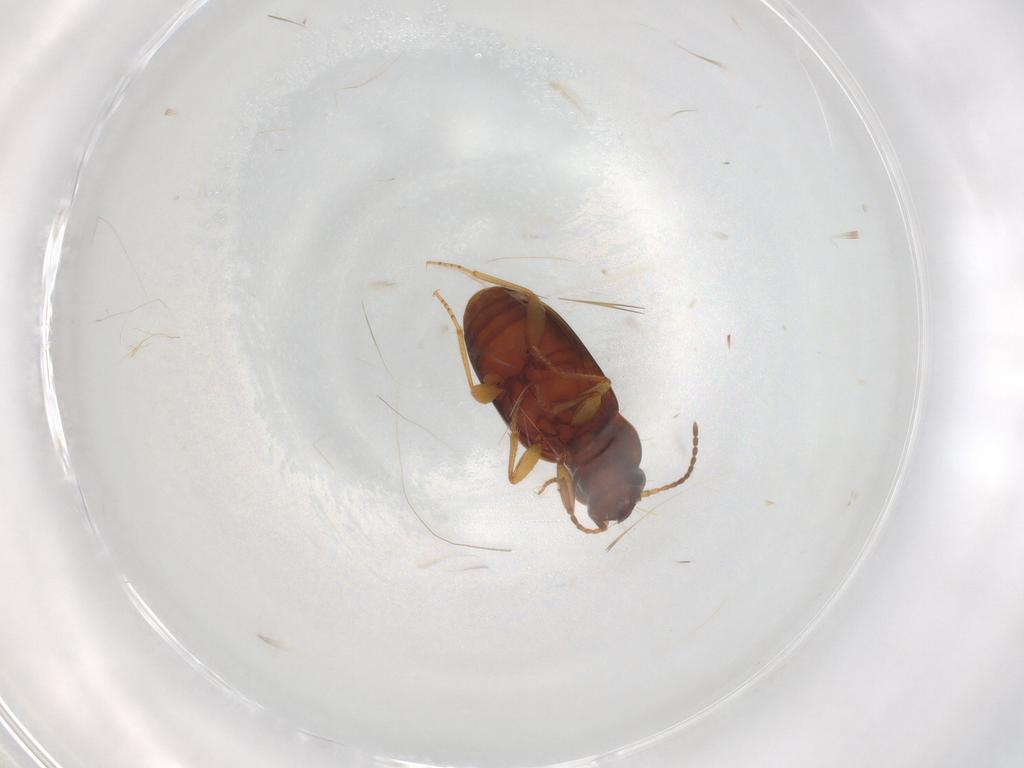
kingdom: Animalia
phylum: Arthropoda
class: Insecta
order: Coleoptera
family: Carabidae
